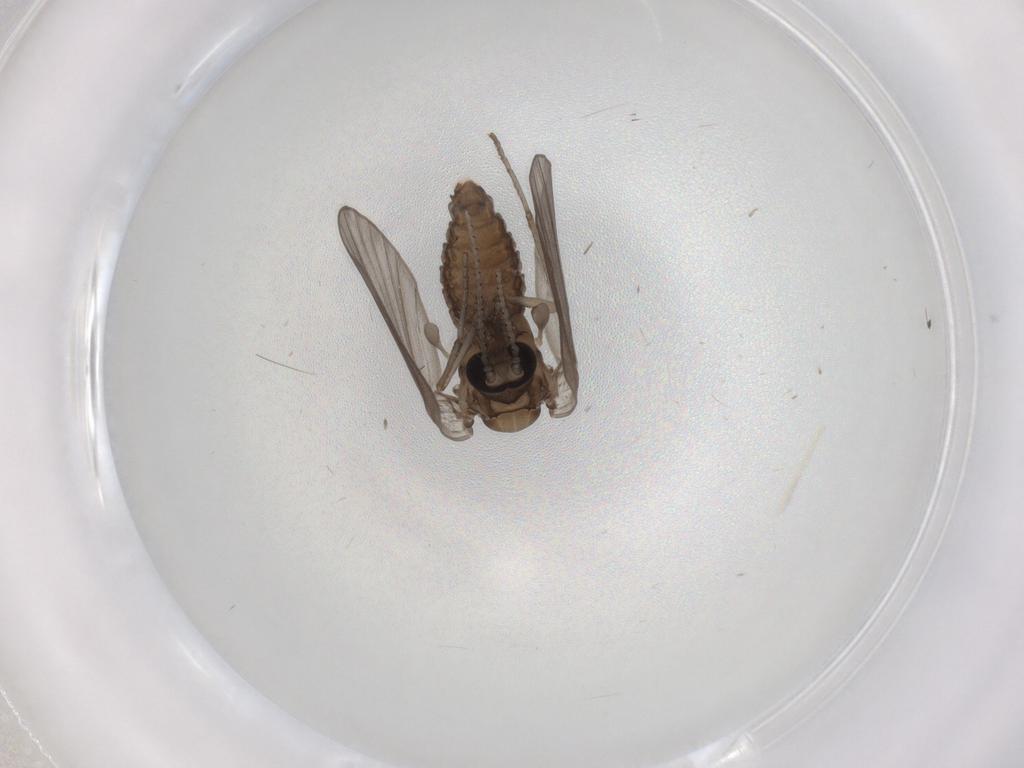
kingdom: Animalia
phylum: Arthropoda
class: Insecta
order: Diptera
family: Psychodidae
